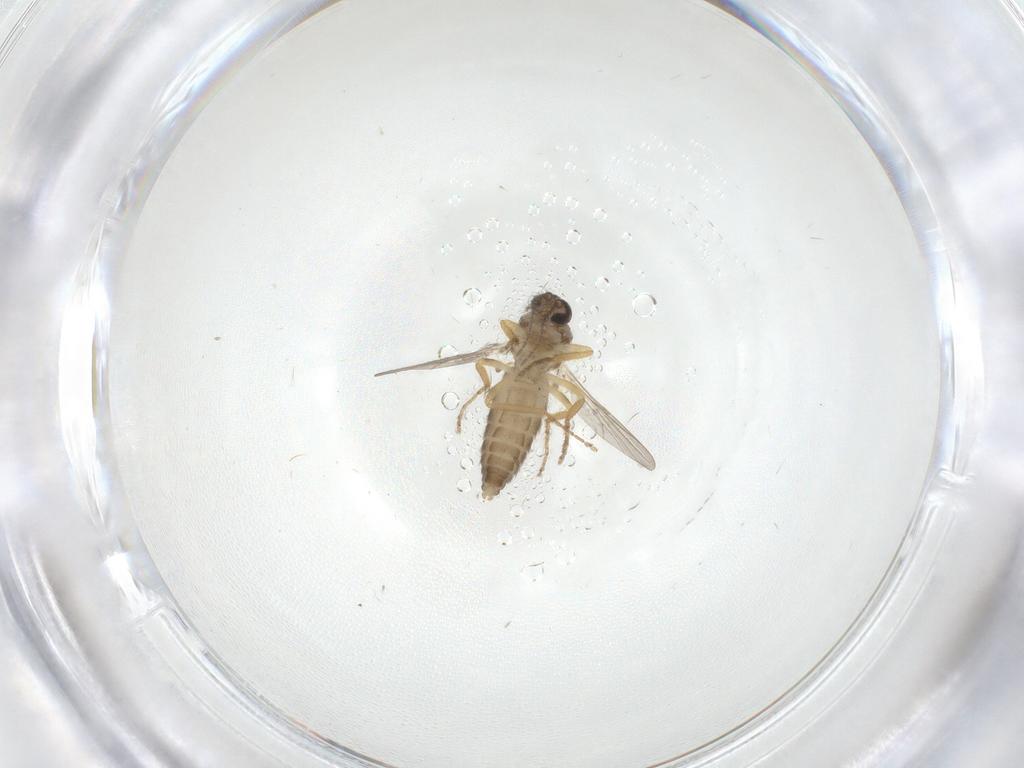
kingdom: Animalia
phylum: Arthropoda
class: Insecta
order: Diptera
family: Ceratopogonidae
